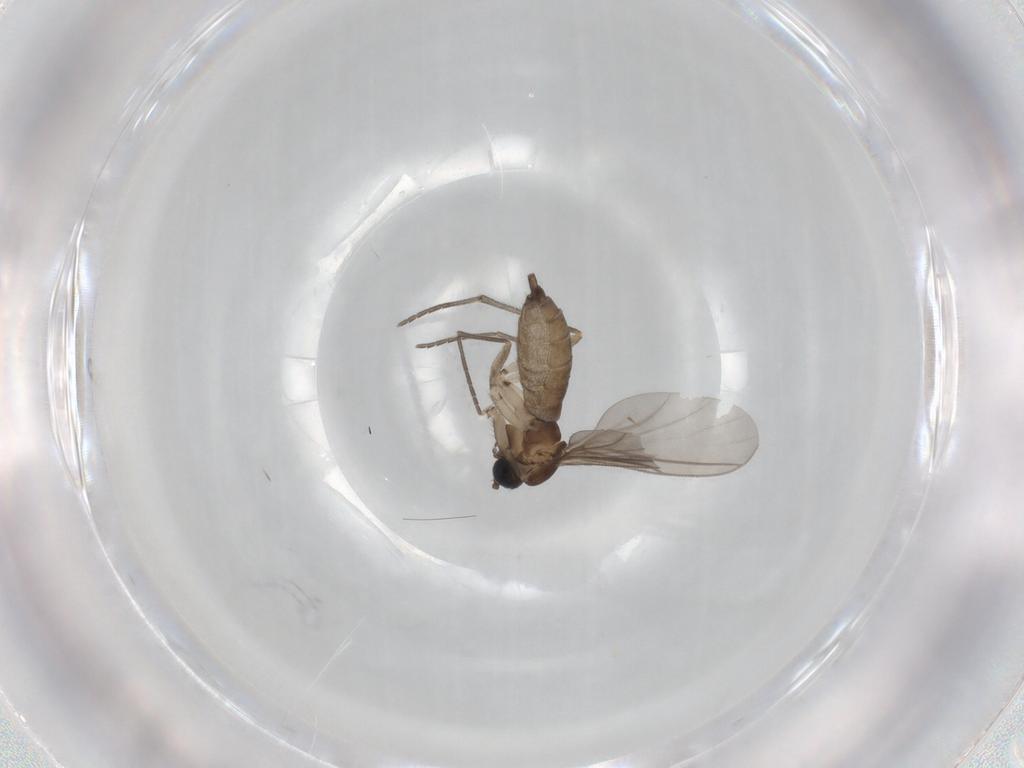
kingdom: Animalia
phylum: Arthropoda
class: Insecta
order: Diptera
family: Sciaridae
